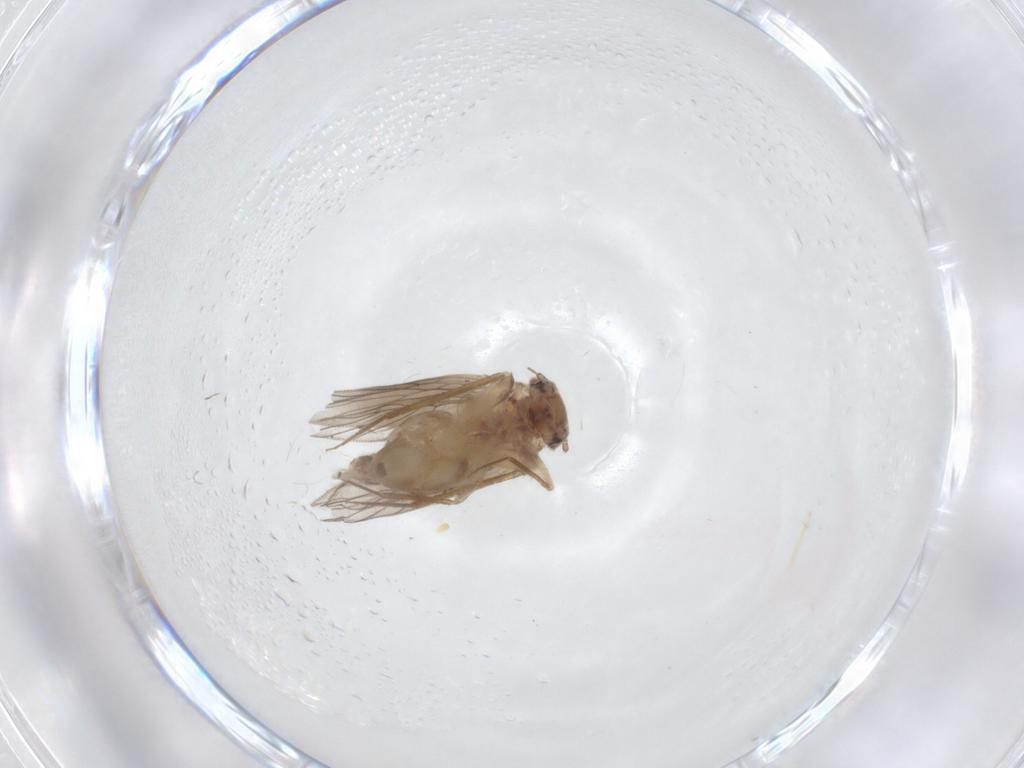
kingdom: Animalia
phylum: Arthropoda
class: Insecta
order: Psocodea
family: Lepidopsocidae
